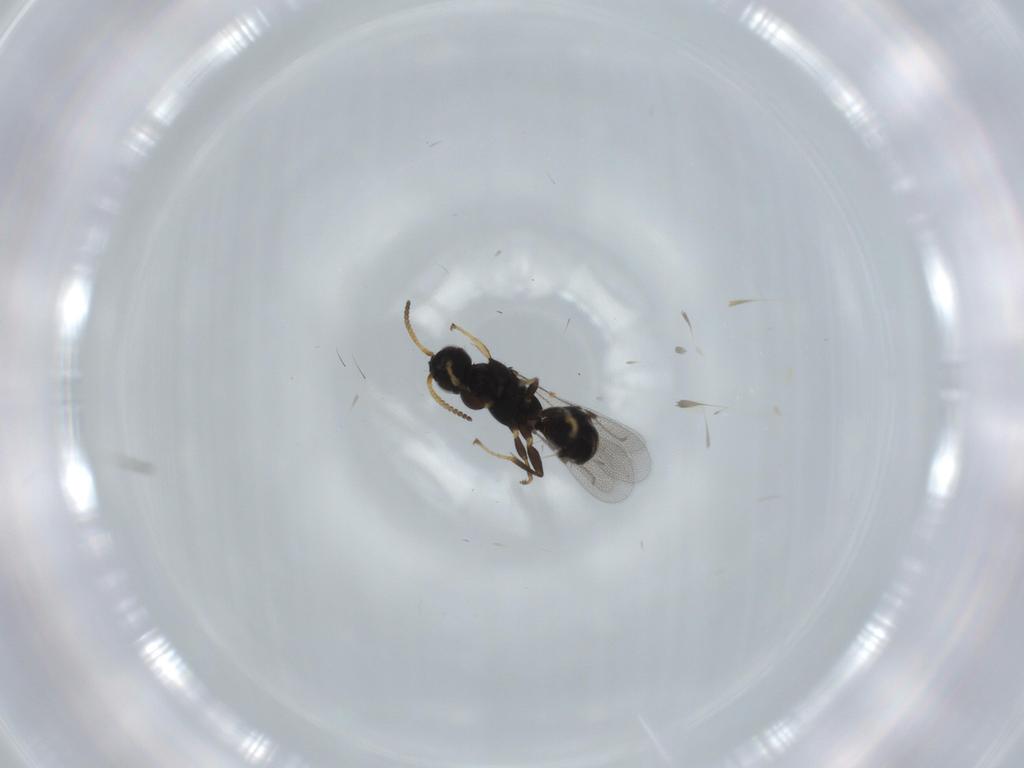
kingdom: Animalia
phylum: Arthropoda
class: Insecta
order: Hymenoptera
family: Bethylidae
